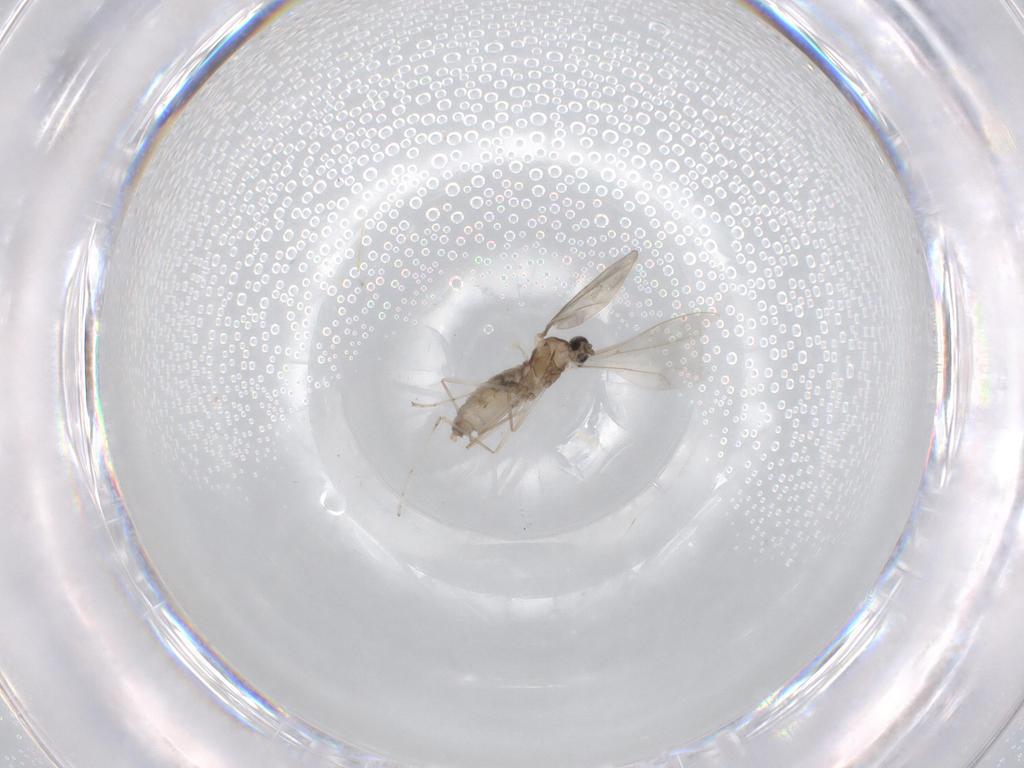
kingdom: Animalia
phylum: Arthropoda
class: Insecta
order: Diptera
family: Cecidomyiidae
